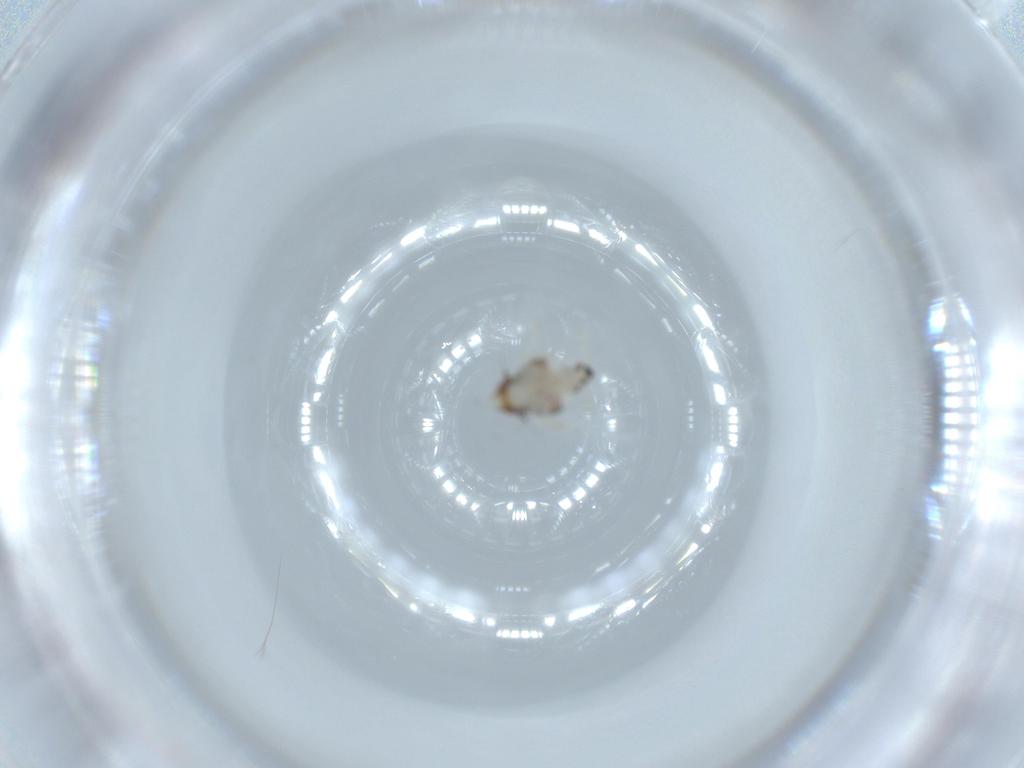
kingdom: Animalia
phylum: Arthropoda
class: Insecta
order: Hemiptera
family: Nogodinidae
